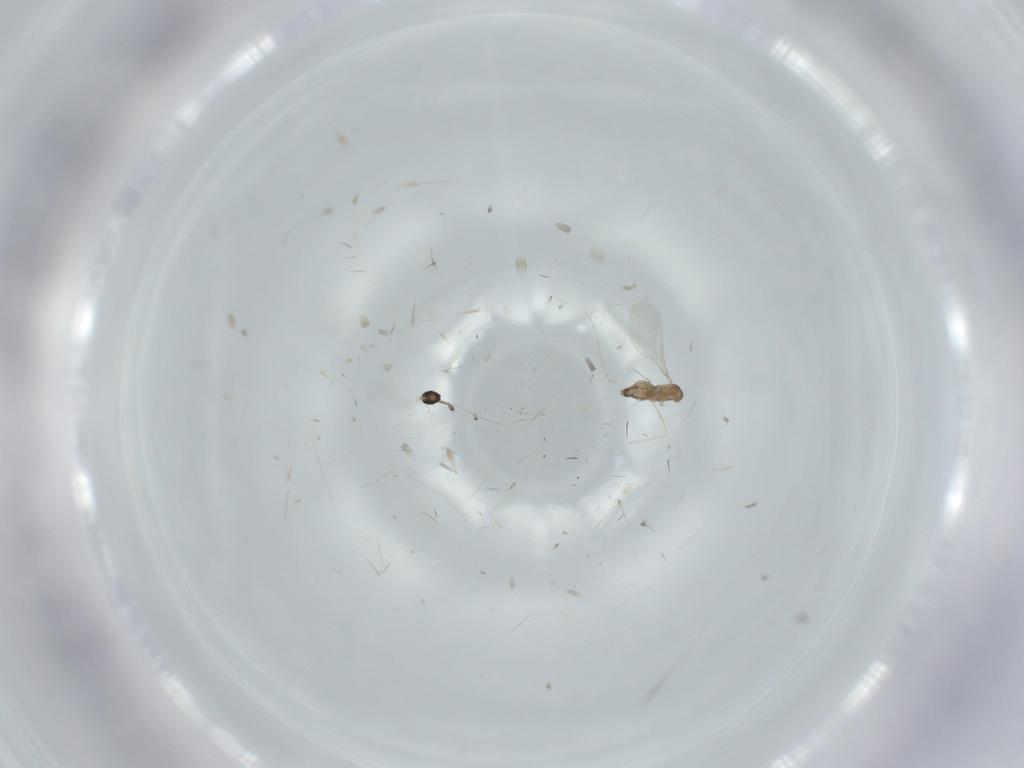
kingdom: Animalia
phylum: Arthropoda
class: Insecta
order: Diptera
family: Cecidomyiidae
